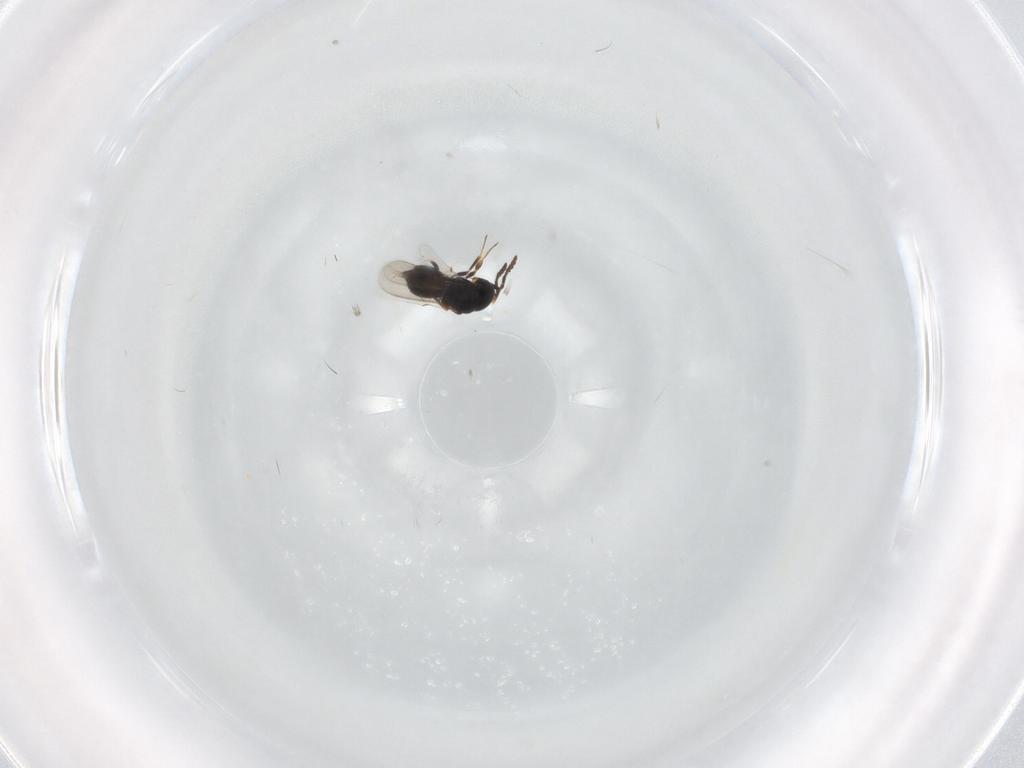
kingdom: Animalia
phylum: Arthropoda
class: Insecta
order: Hymenoptera
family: Scelionidae
